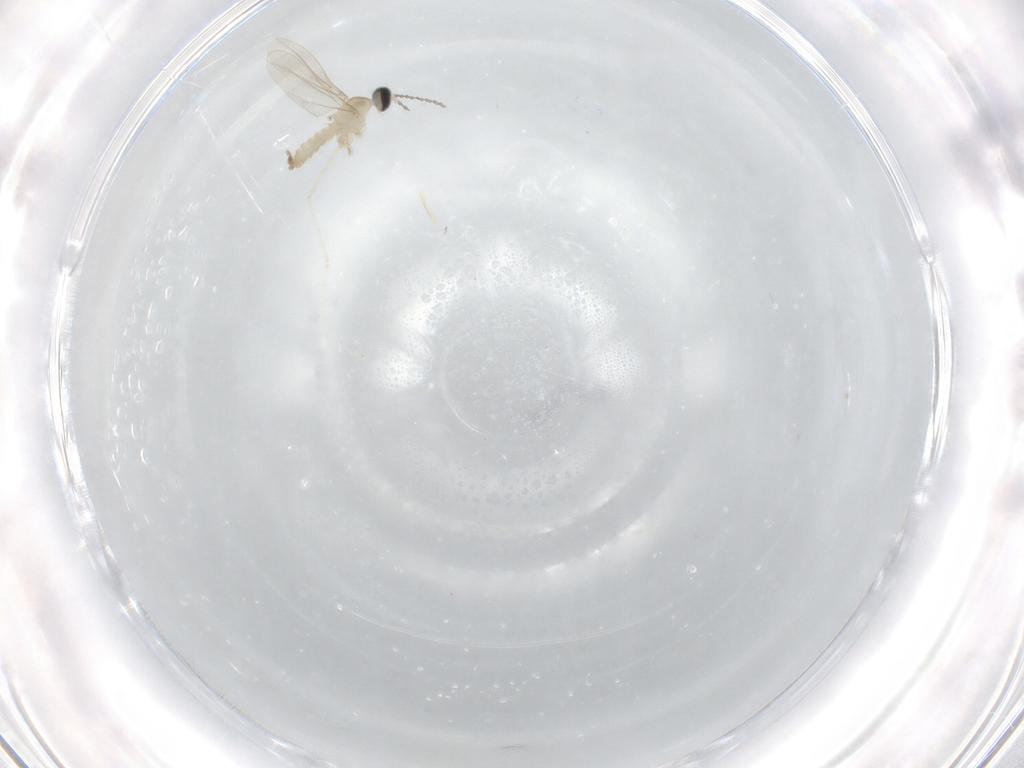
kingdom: Animalia
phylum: Arthropoda
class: Insecta
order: Diptera
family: Cecidomyiidae
